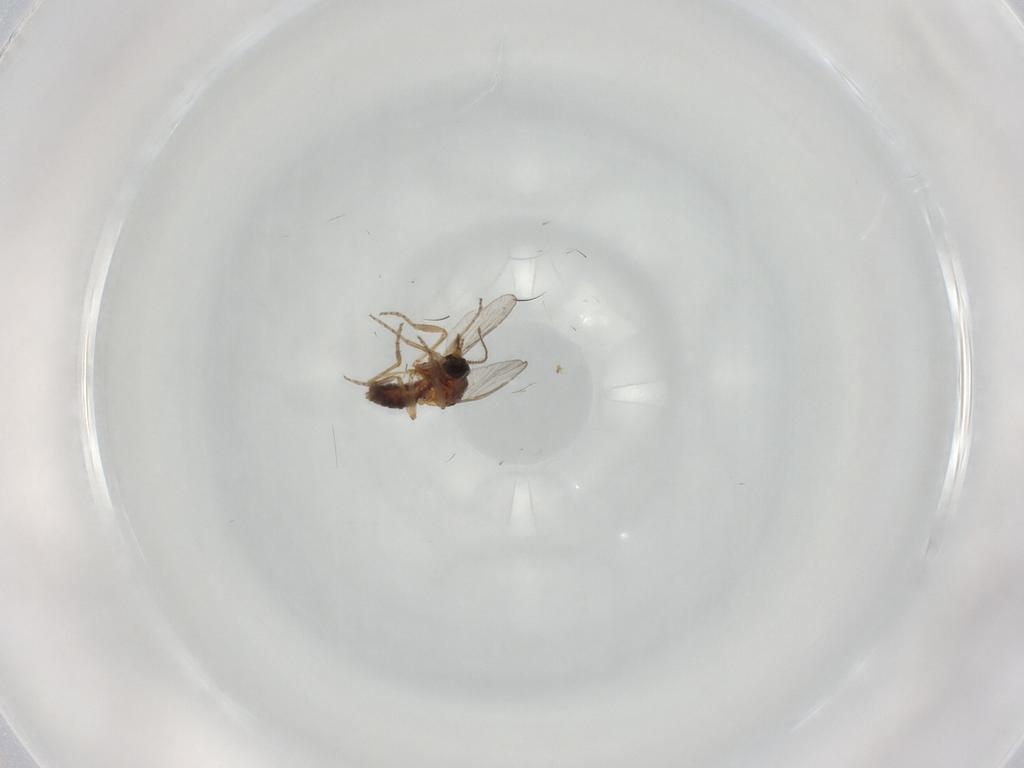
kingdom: Animalia
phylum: Arthropoda
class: Insecta
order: Diptera
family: Ceratopogonidae
